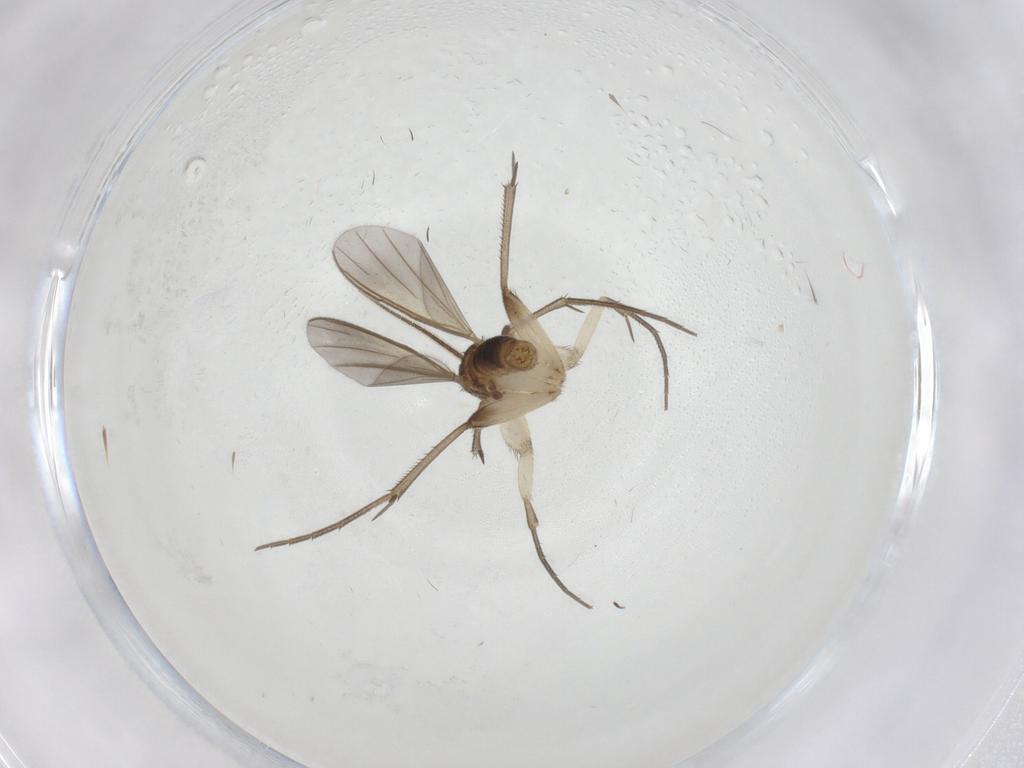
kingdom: Animalia
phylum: Arthropoda
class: Insecta
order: Diptera
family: Mycetophilidae
